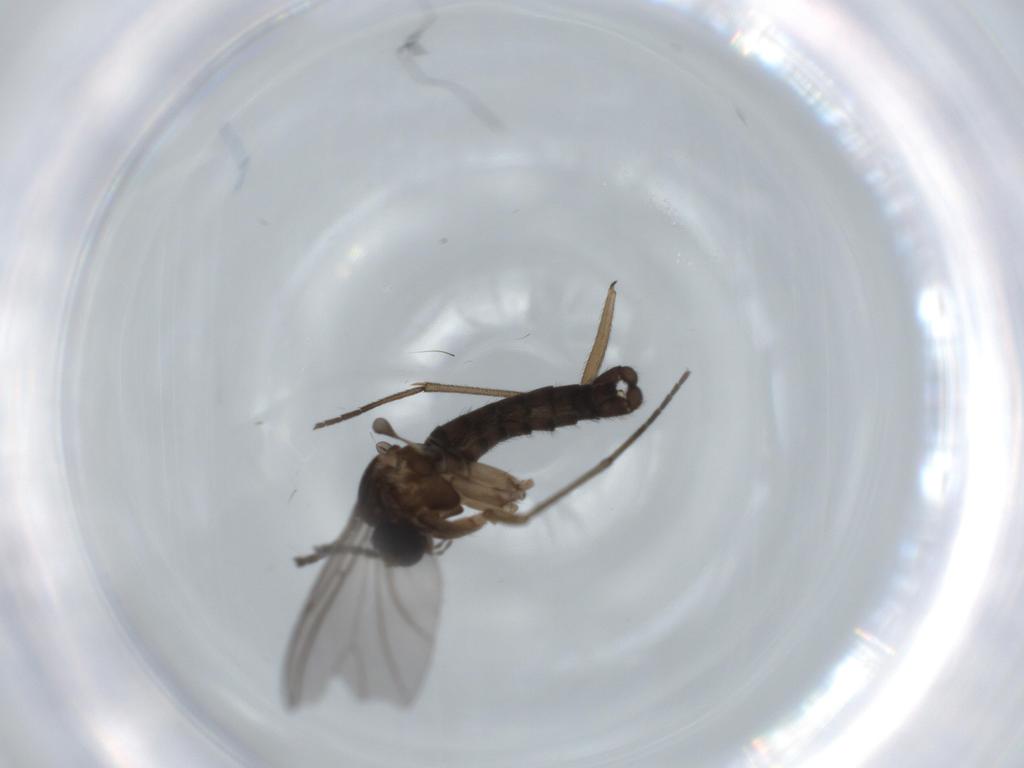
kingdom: Animalia
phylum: Arthropoda
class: Insecta
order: Diptera
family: Sciaridae
